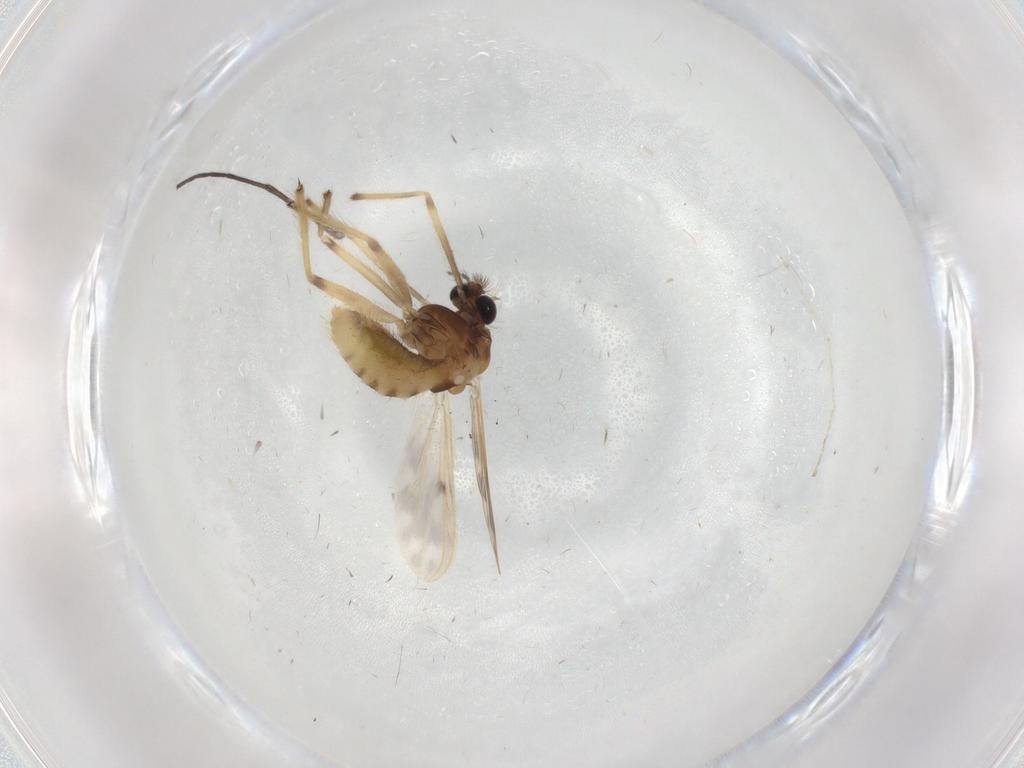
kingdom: Animalia
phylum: Arthropoda
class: Insecta
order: Diptera
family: Chironomidae
